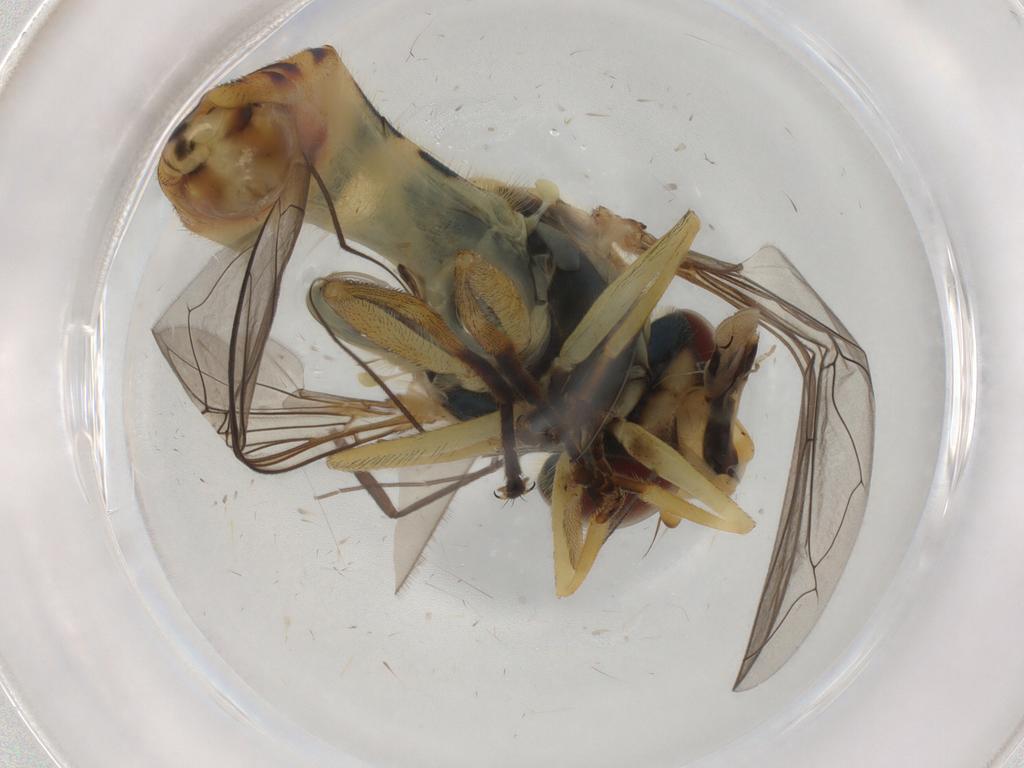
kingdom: Animalia
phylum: Arthropoda
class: Insecta
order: Diptera
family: Syrphidae
